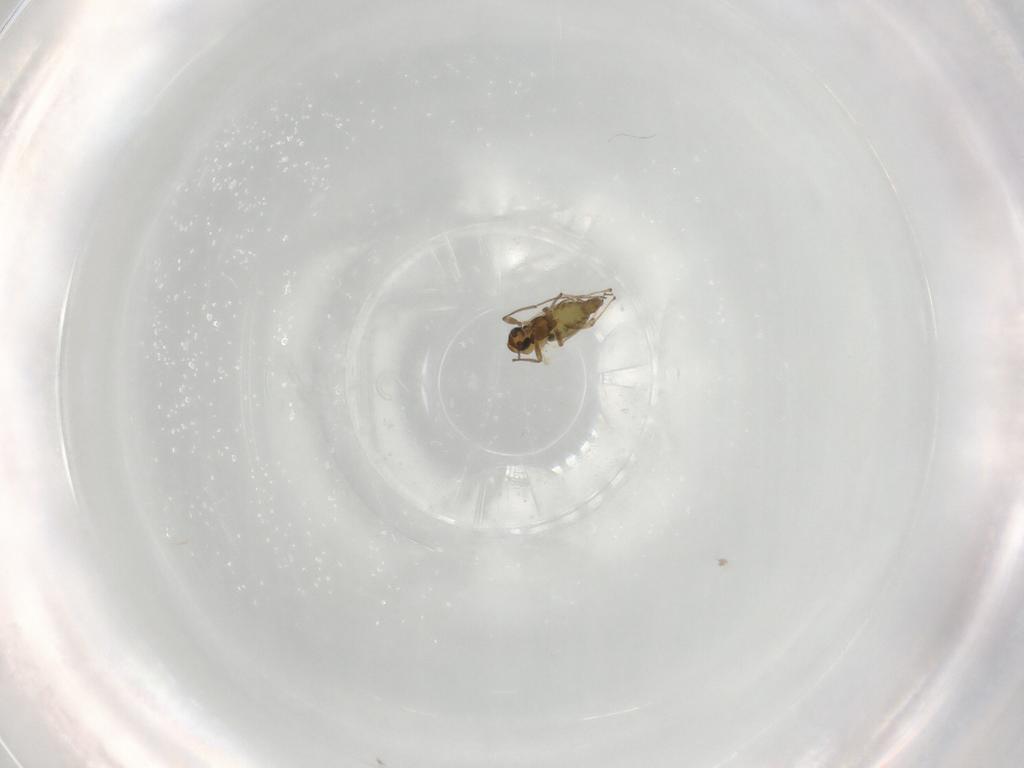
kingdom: Animalia
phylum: Arthropoda
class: Insecta
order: Diptera
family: Chironomidae
